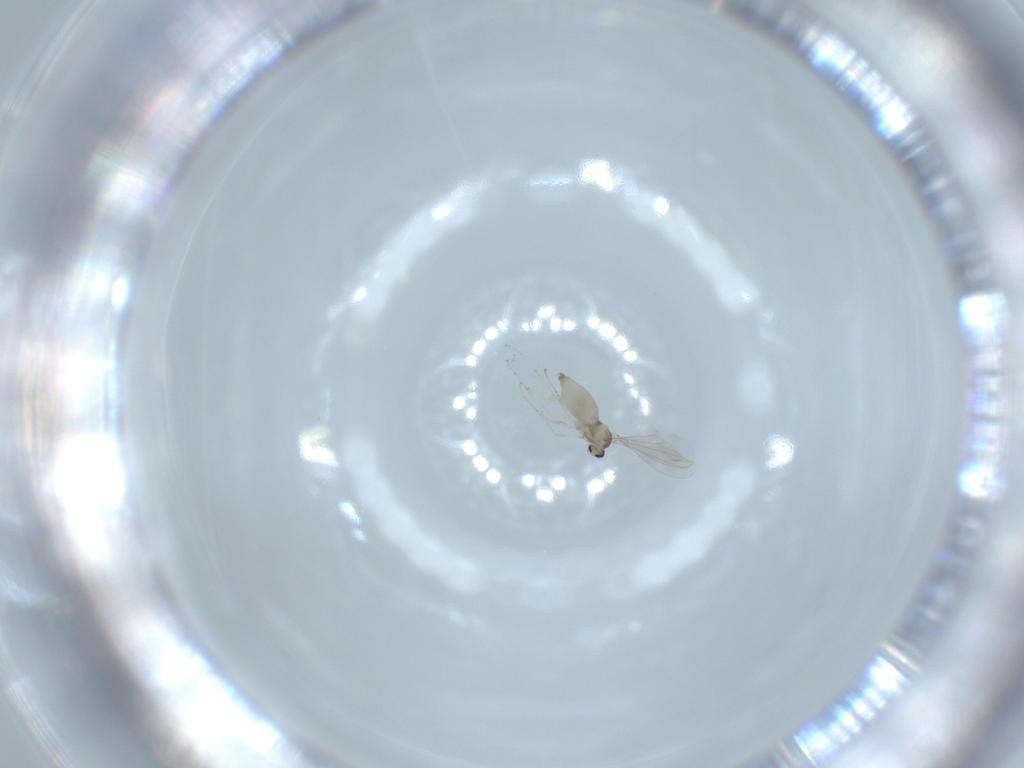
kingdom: Animalia
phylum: Arthropoda
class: Insecta
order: Diptera
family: Cecidomyiidae
